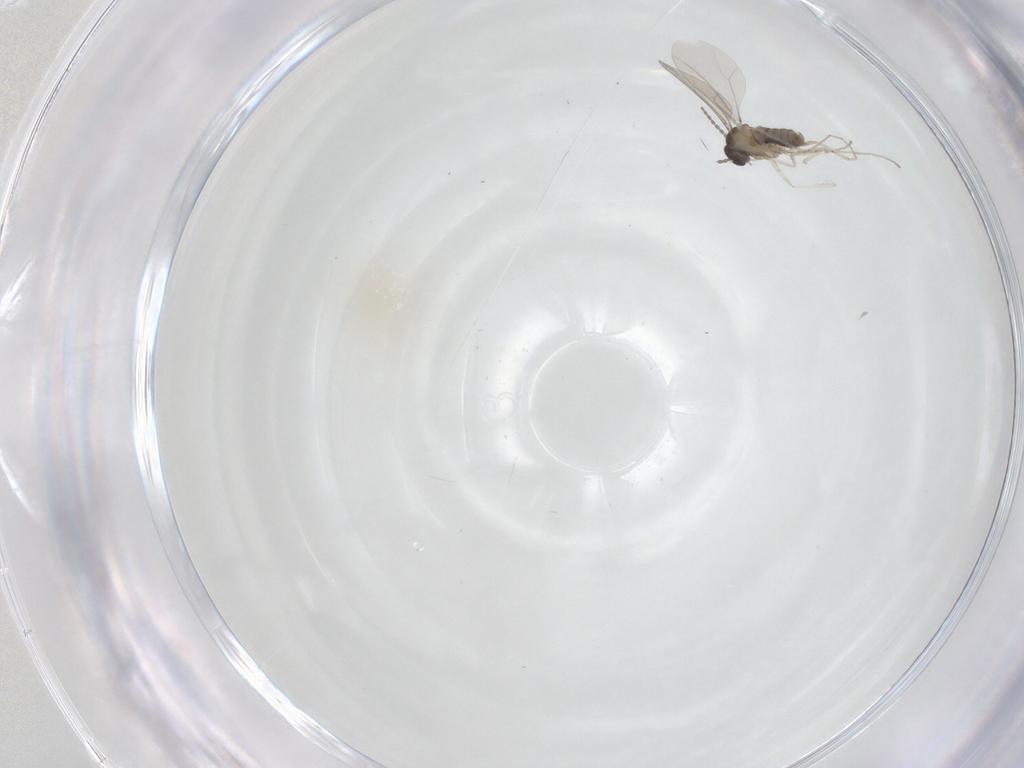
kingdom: Animalia
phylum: Arthropoda
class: Insecta
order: Diptera
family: Cecidomyiidae
